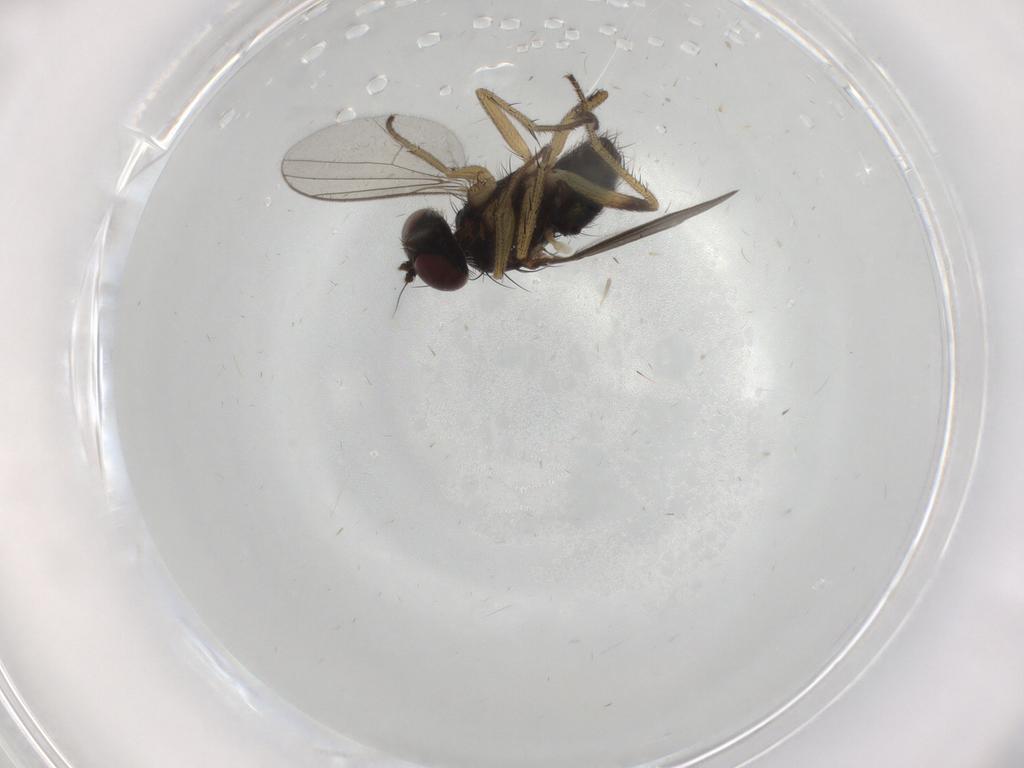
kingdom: Animalia
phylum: Arthropoda
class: Insecta
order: Diptera
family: Dolichopodidae
